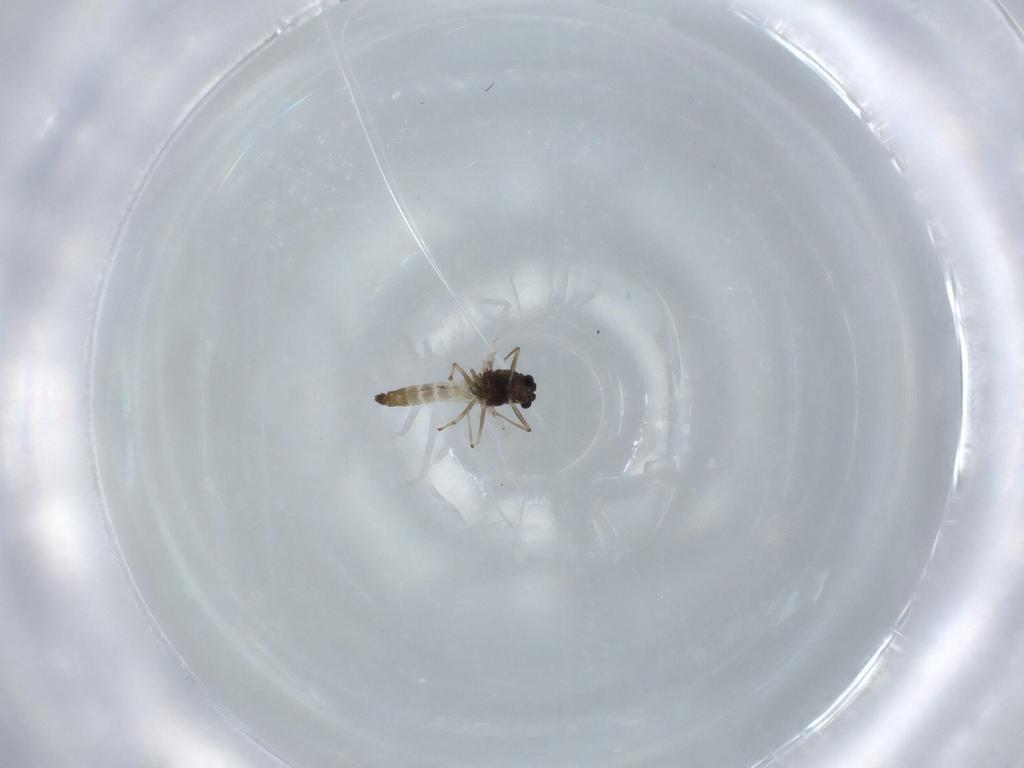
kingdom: Animalia
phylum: Arthropoda
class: Insecta
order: Diptera
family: Chironomidae
